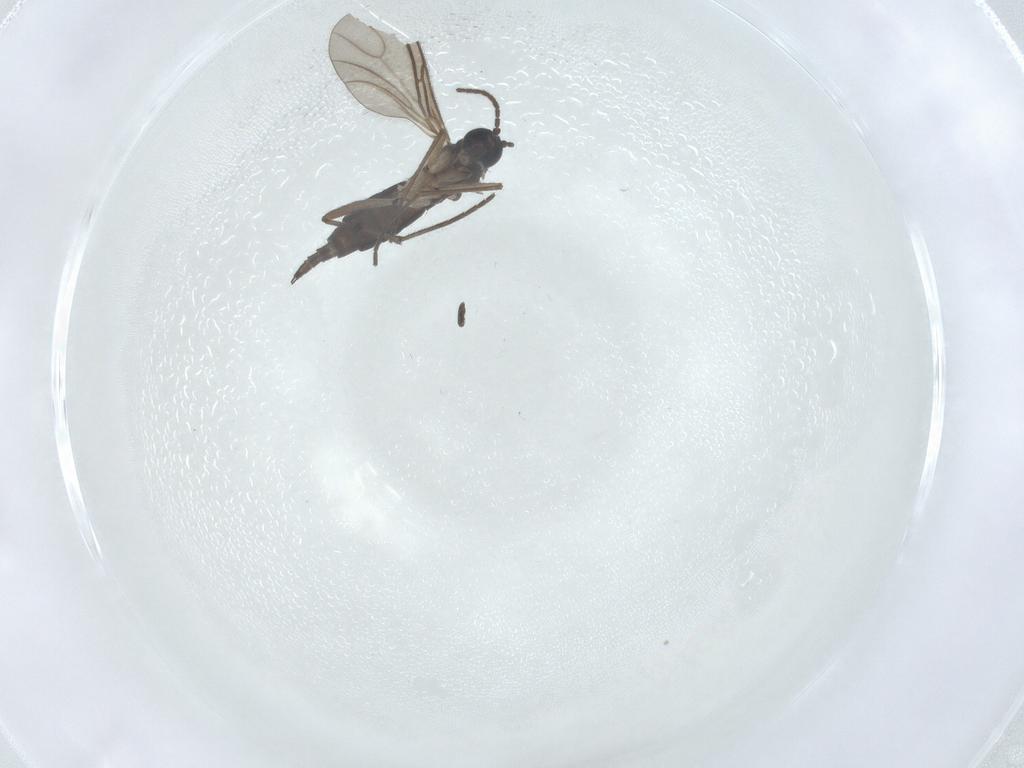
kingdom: Animalia
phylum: Arthropoda
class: Insecta
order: Diptera
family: Sciaridae
